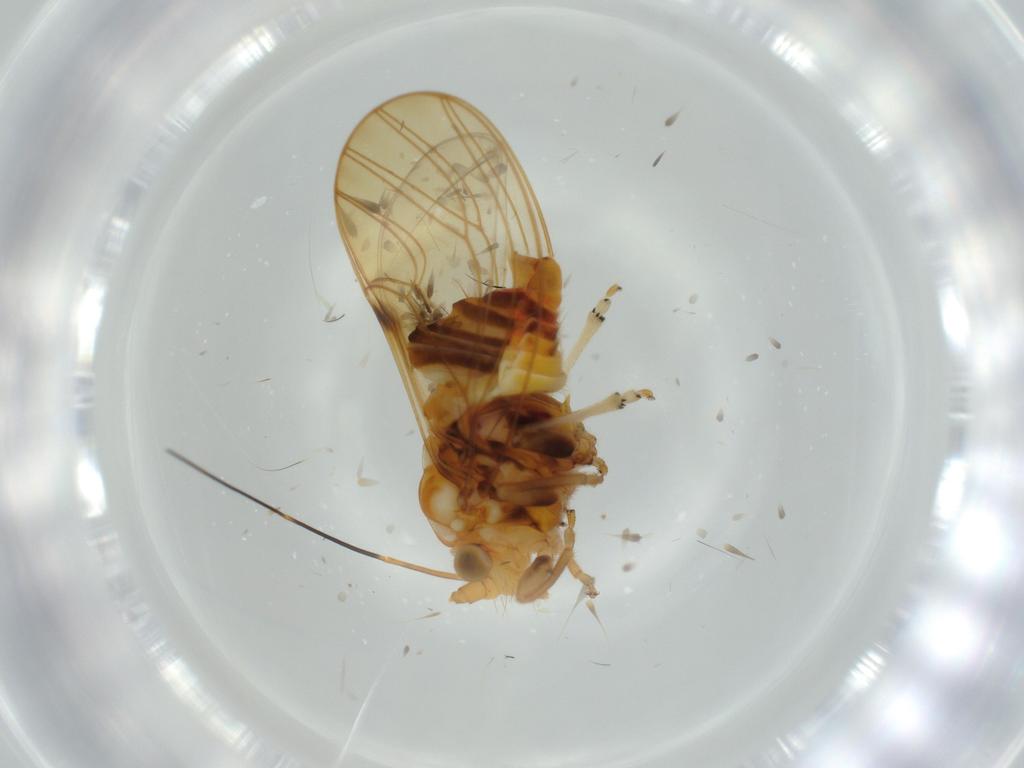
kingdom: Animalia
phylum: Arthropoda
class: Insecta
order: Hemiptera
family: Psyllidae
